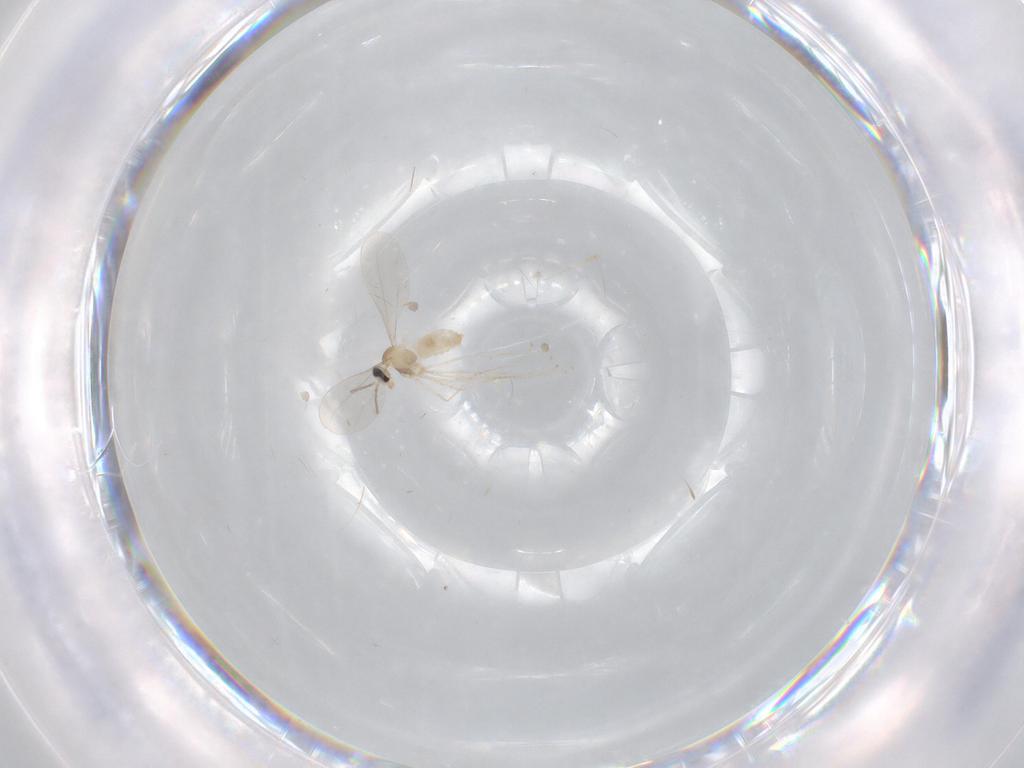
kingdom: Animalia
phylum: Arthropoda
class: Insecta
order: Diptera
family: Cecidomyiidae
